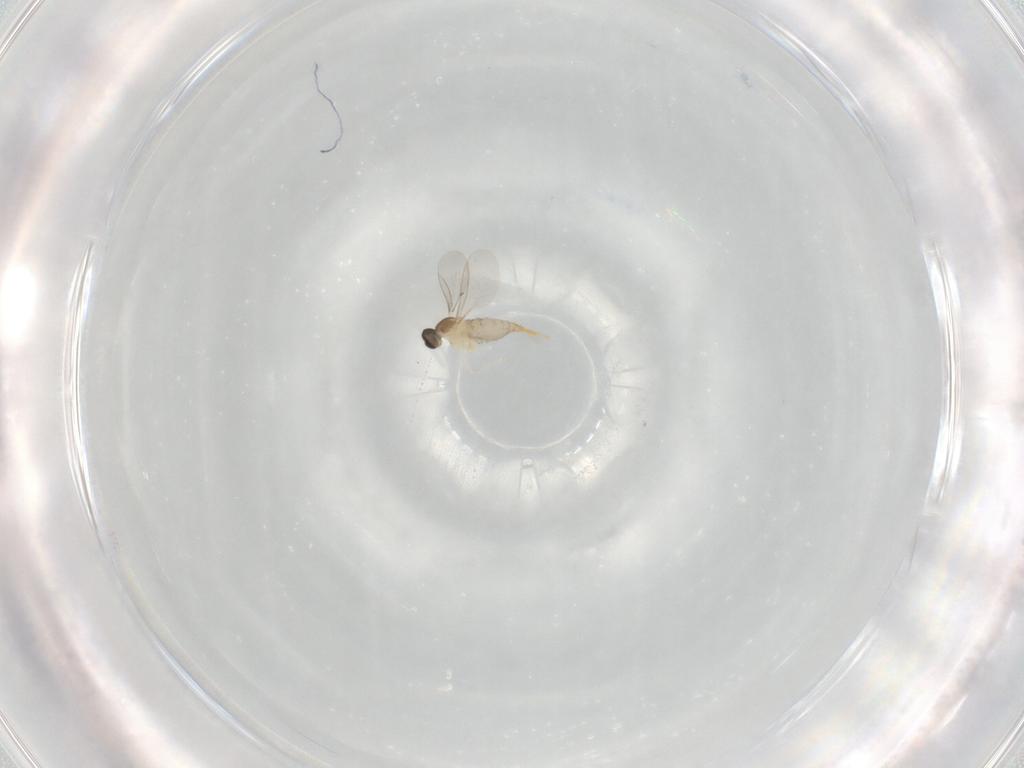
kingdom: Animalia
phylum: Arthropoda
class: Insecta
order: Diptera
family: Cecidomyiidae
